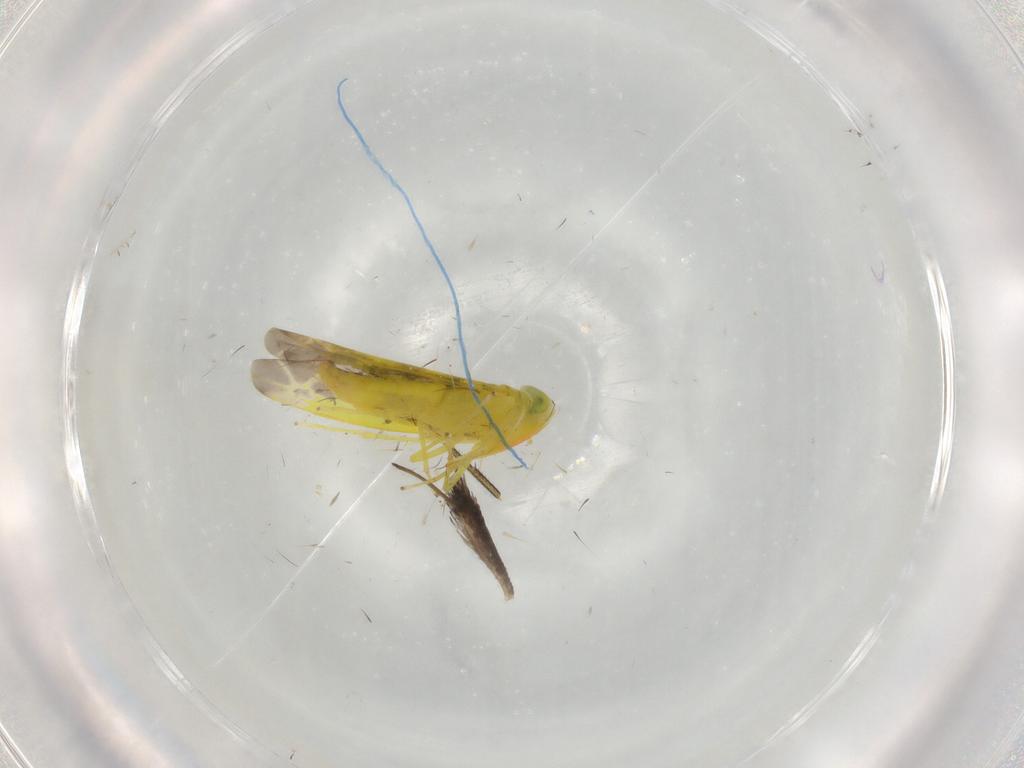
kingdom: Animalia
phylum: Arthropoda
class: Insecta
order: Hemiptera
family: Cicadellidae
